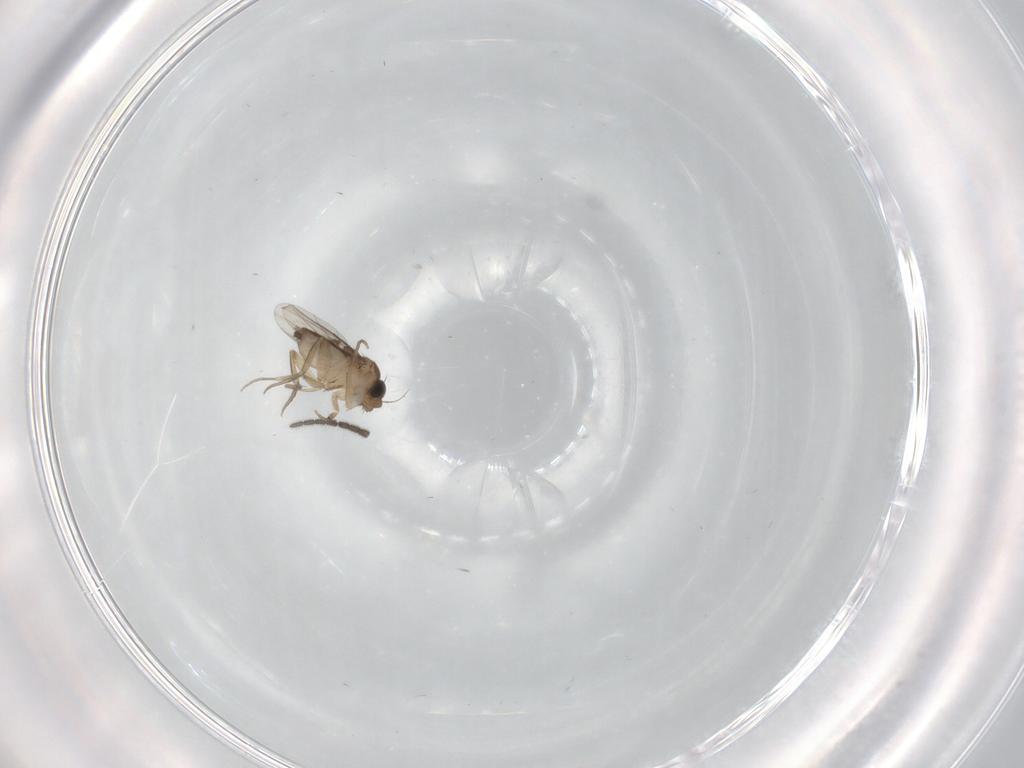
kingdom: Animalia
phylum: Arthropoda
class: Insecta
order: Diptera
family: Phoridae
